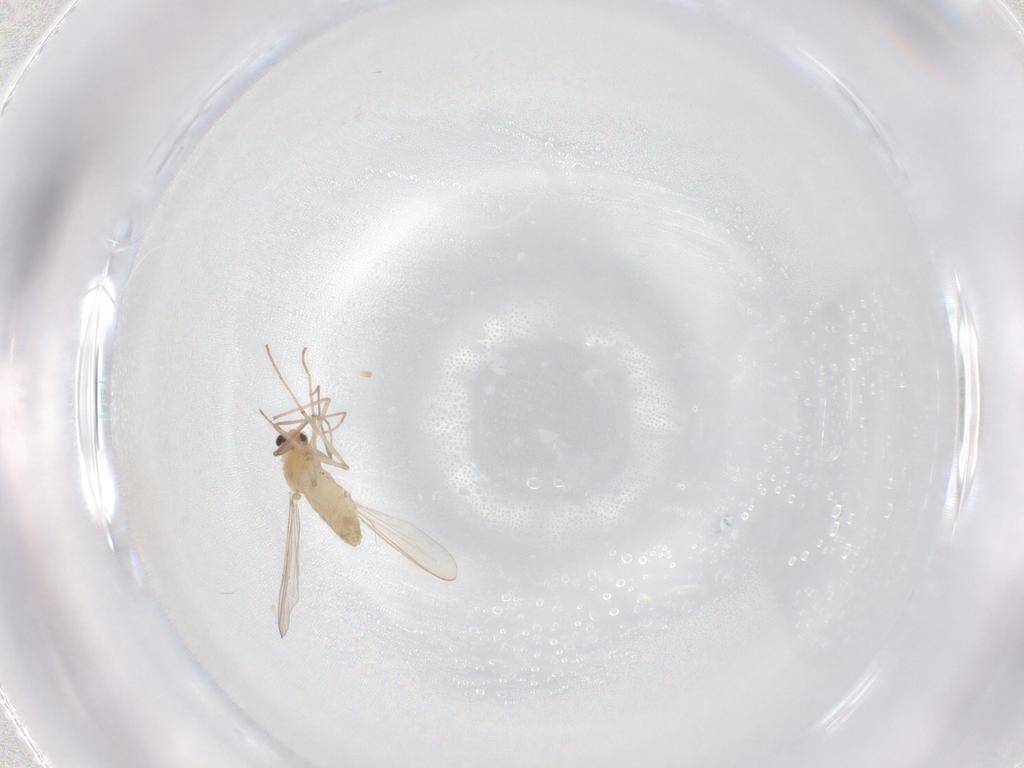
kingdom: Animalia
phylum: Arthropoda
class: Insecta
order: Diptera
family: Chironomidae
